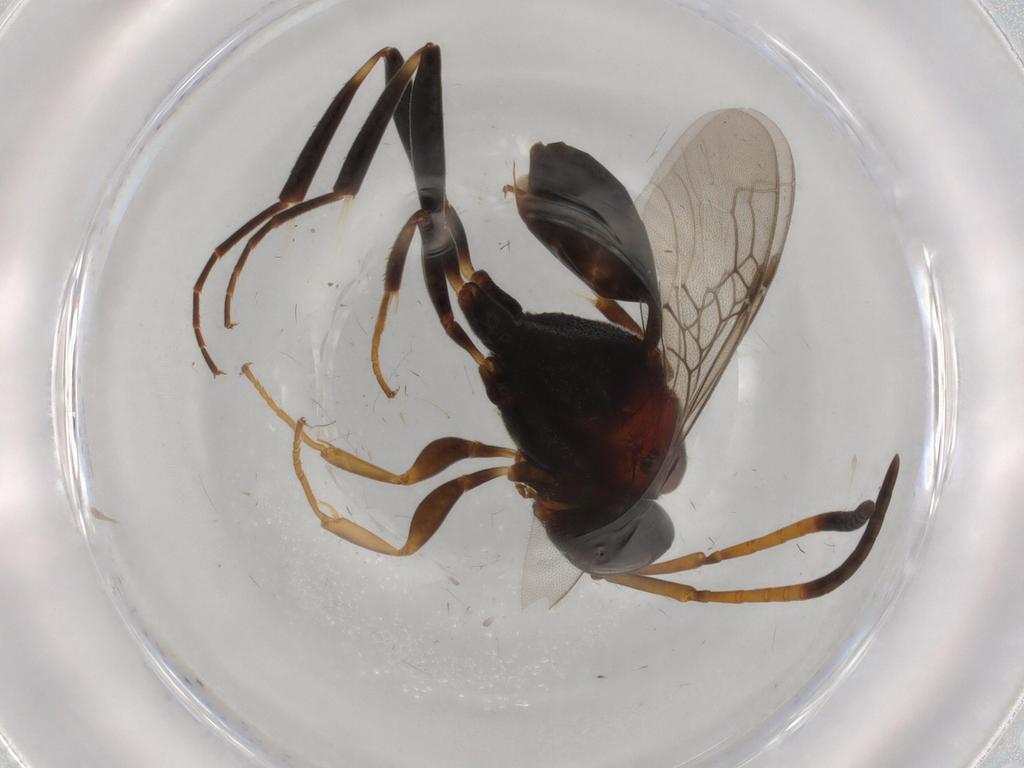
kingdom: Animalia
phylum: Arthropoda
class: Insecta
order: Hymenoptera
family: Evaniidae
